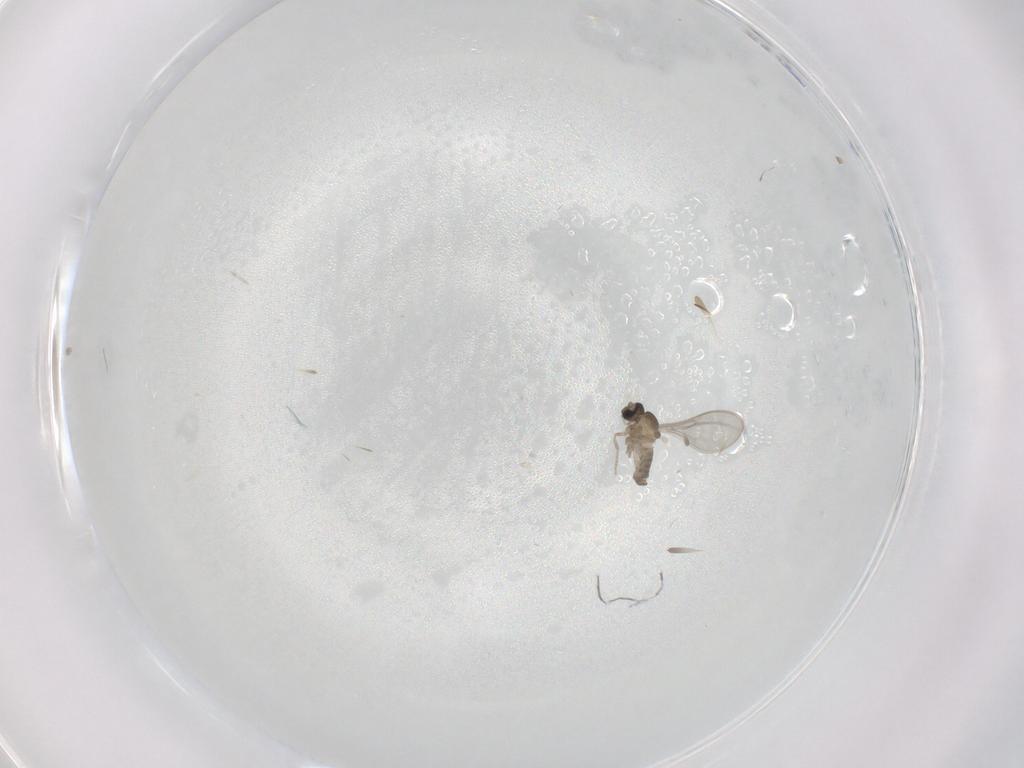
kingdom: Animalia
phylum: Arthropoda
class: Insecta
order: Diptera
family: Cecidomyiidae
